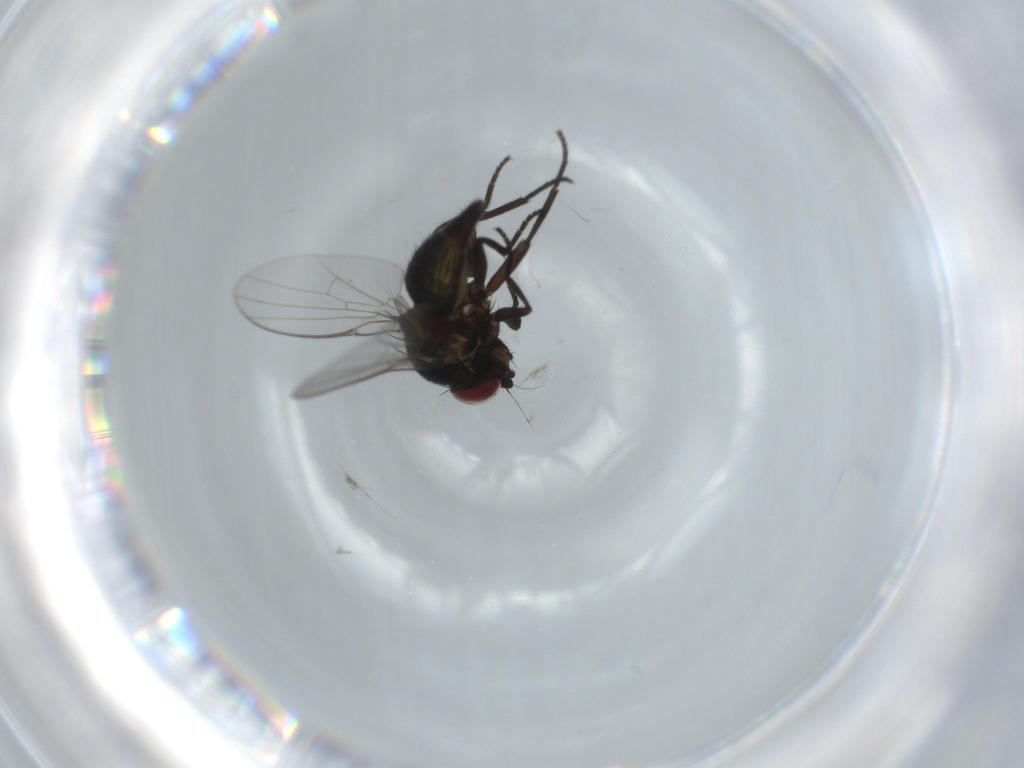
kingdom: Animalia
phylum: Arthropoda
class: Insecta
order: Diptera
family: Agromyzidae
